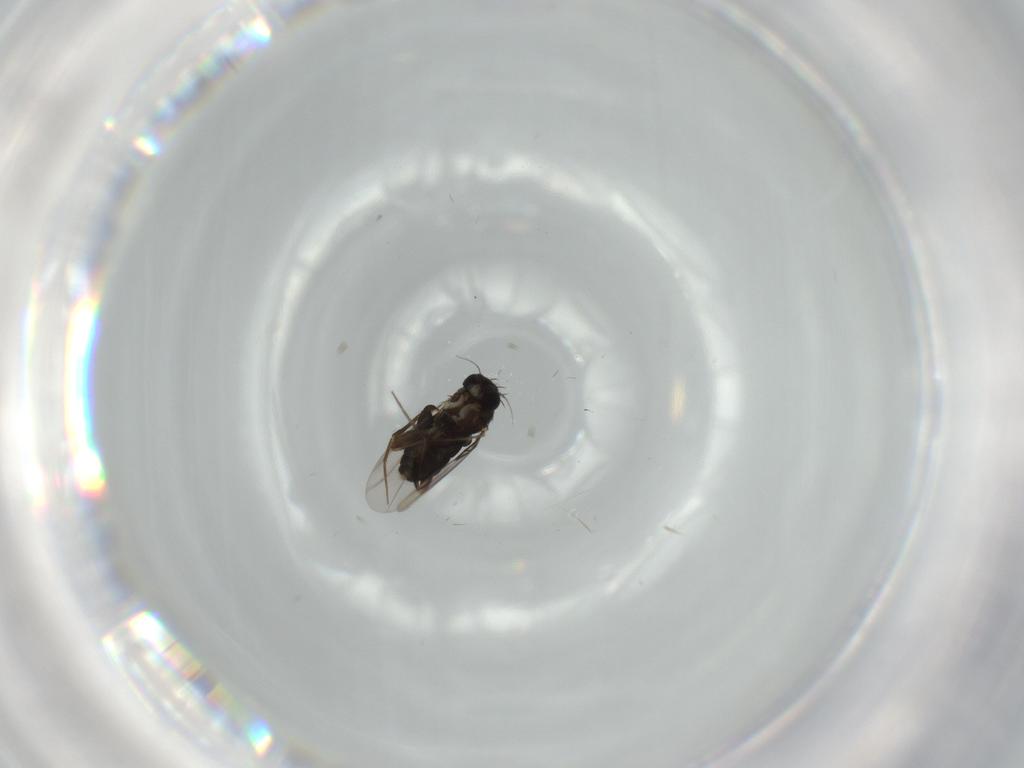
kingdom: Animalia
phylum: Arthropoda
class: Insecta
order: Diptera
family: Phoridae
